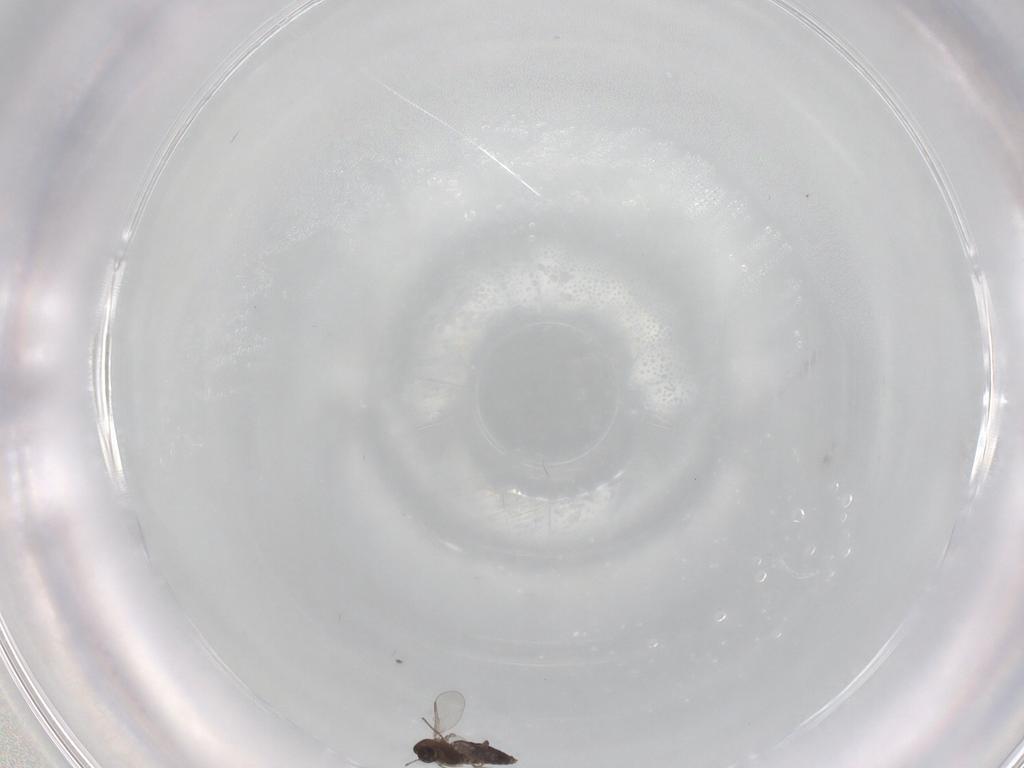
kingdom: Animalia
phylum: Arthropoda
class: Insecta
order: Diptera
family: Chironomidae
